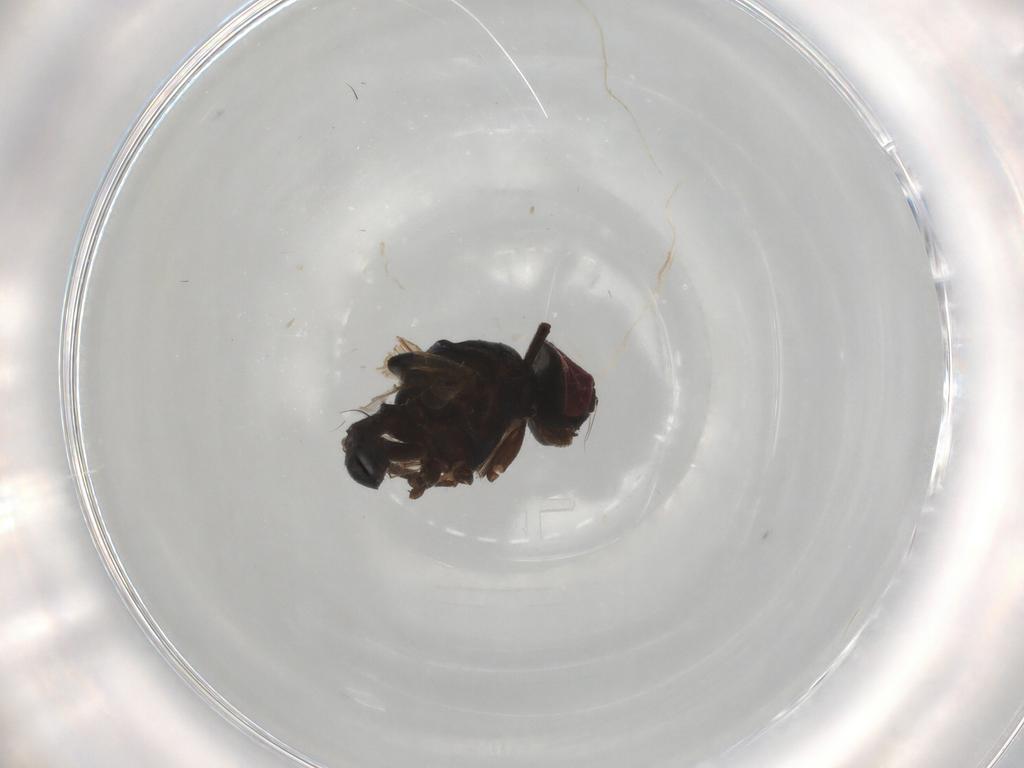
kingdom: Animalia
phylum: Arthropoda
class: Insecta
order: Diptera
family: Muscidae
